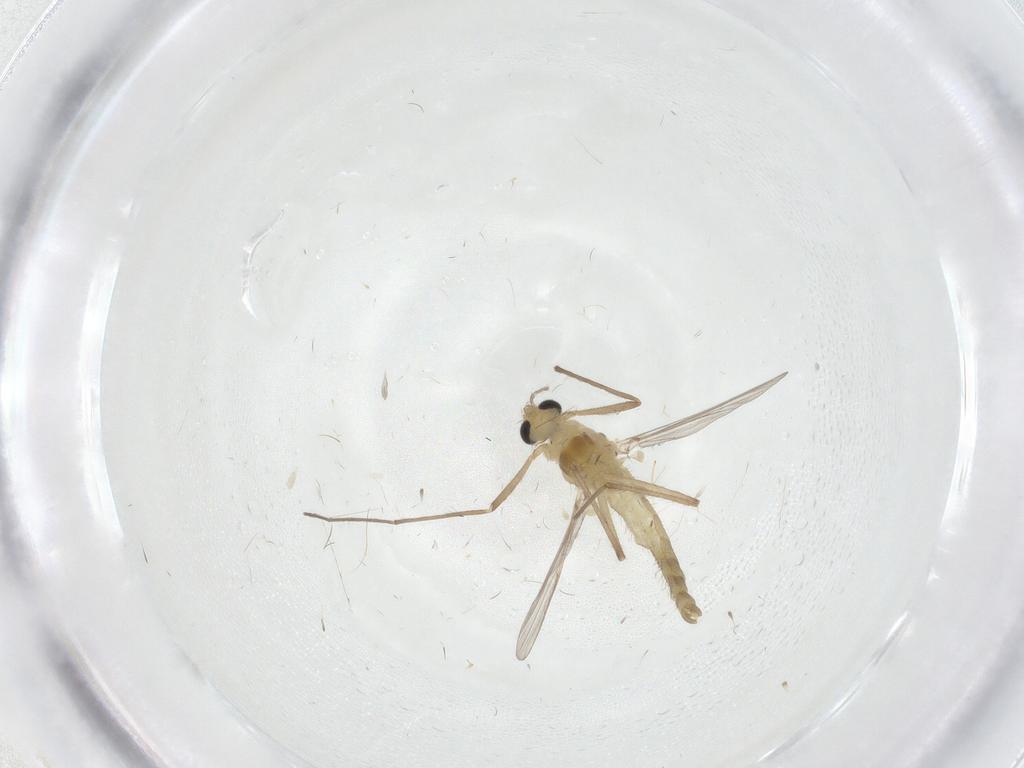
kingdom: Animalia
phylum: Arthropoda
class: Insecta
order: Diptera
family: Chironomidae
